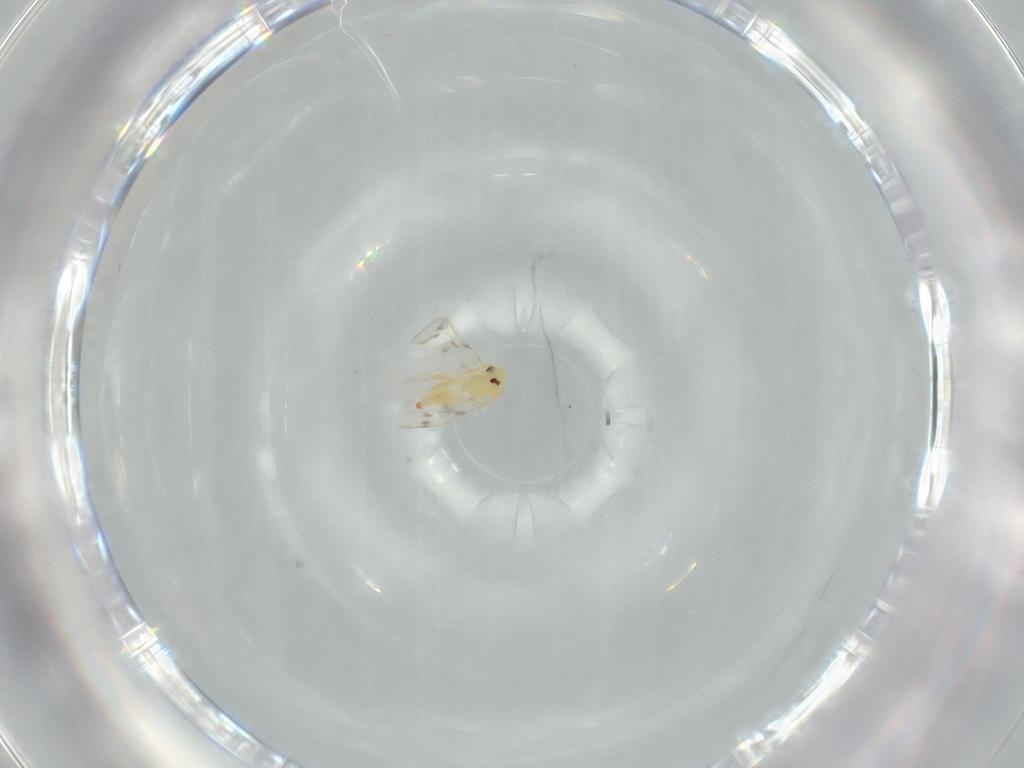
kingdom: Animalia
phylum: Arthropoda
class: Insecta
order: Hemiptera
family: Aleyrodidae
